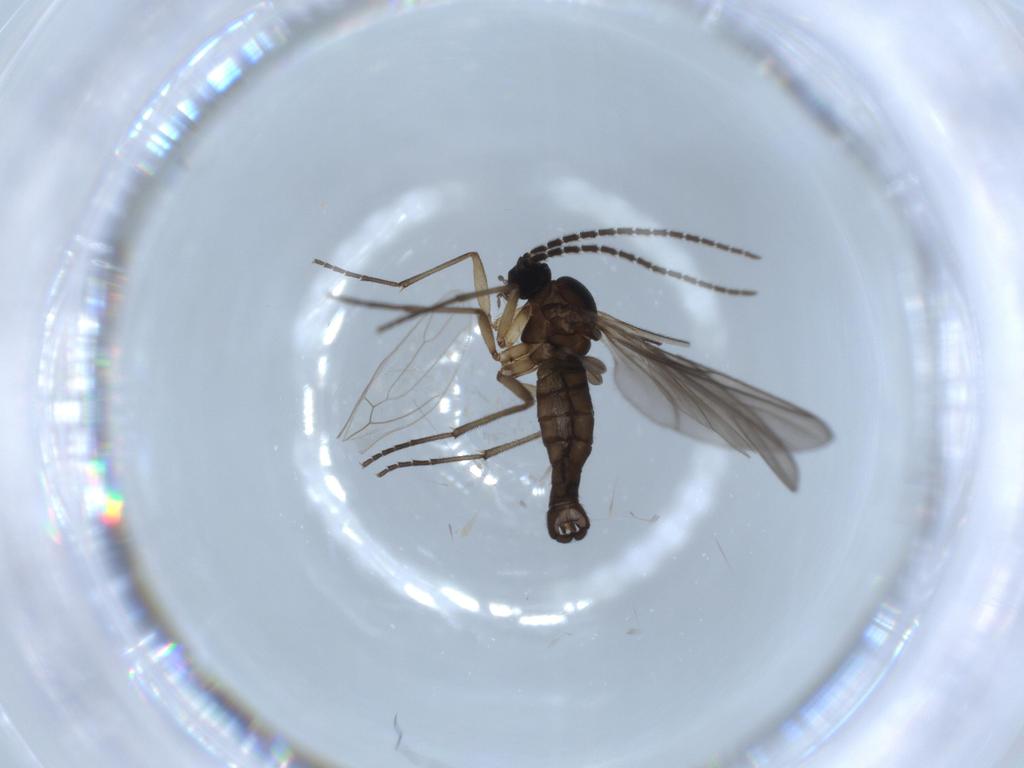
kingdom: Animalia
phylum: Arthropoda
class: Insecta
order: Diptera
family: Sciaridae
